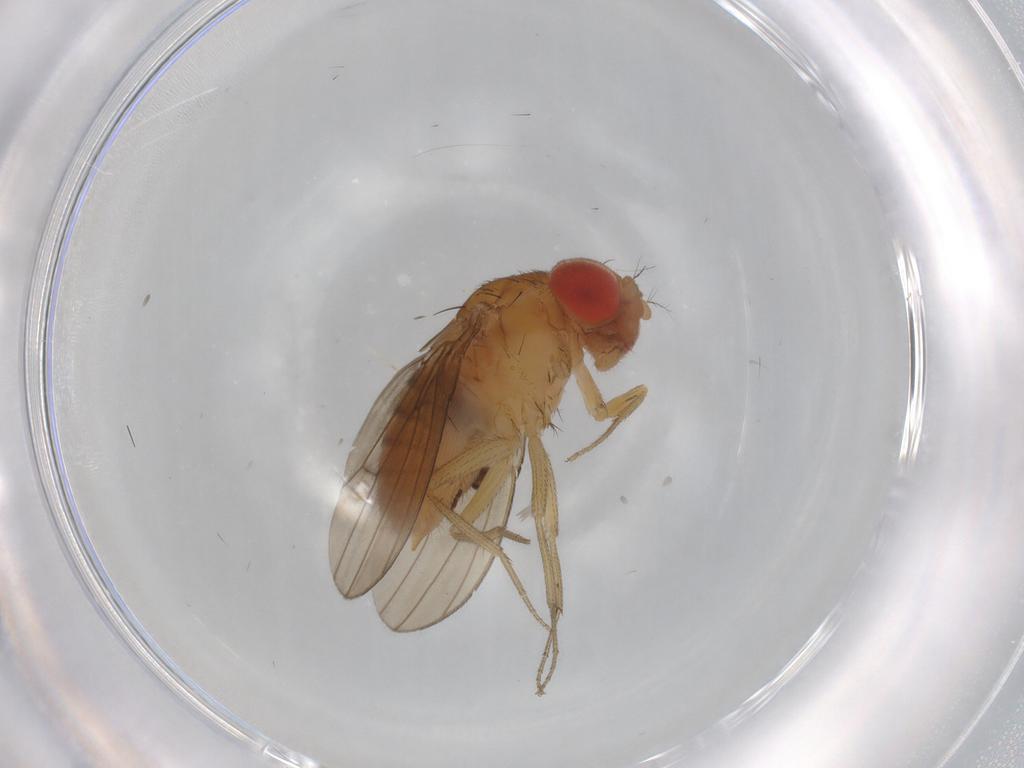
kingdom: Animalia
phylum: Arthropoda
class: Insecta
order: Diptera
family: Drosophilidae
